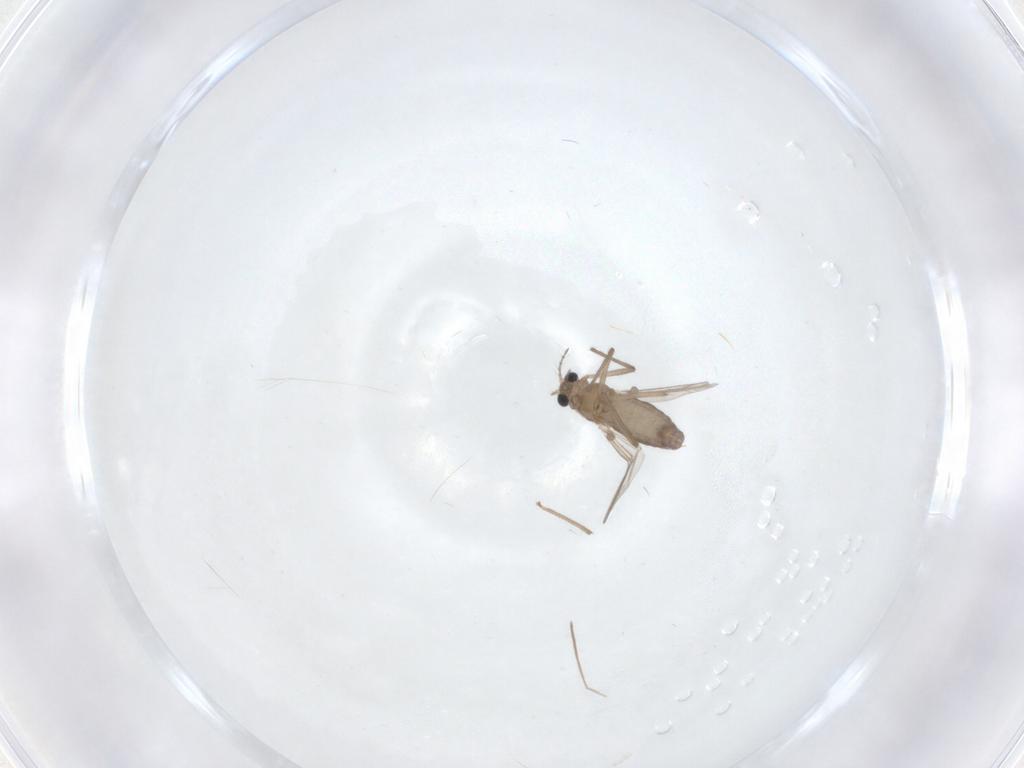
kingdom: Animalia
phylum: Arthropoda
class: Insecta
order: Diptera
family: Chironomidae
